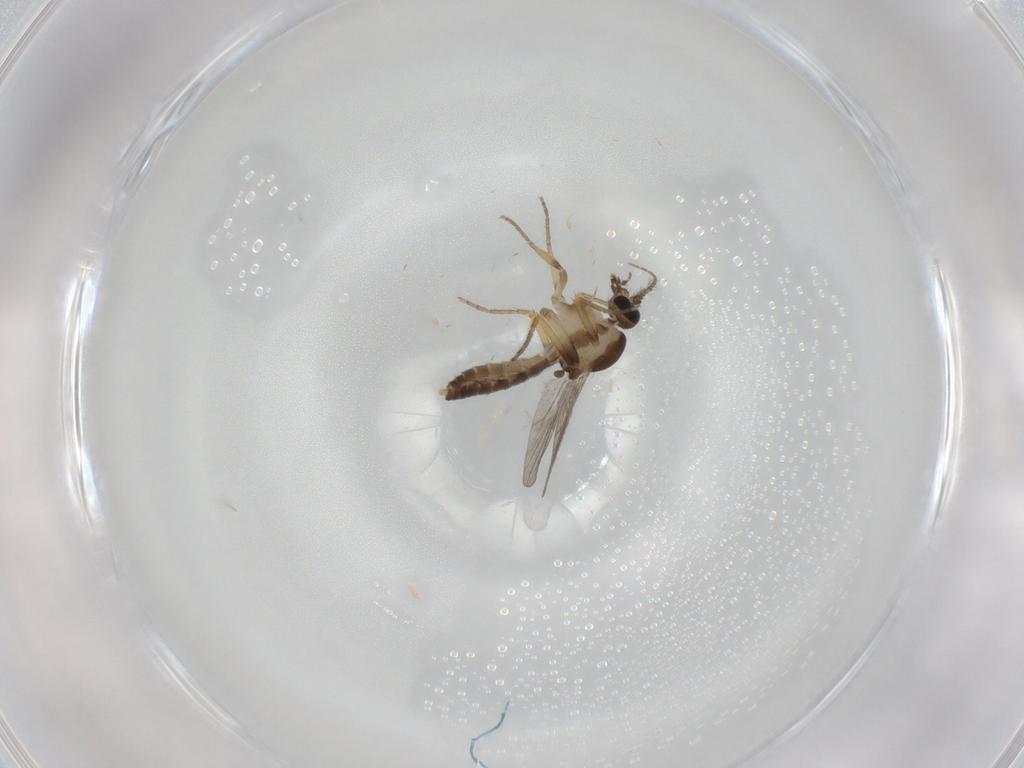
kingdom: Animalia
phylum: Arthropoda
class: Insecta
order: Diptera
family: Ceratopogonidae
